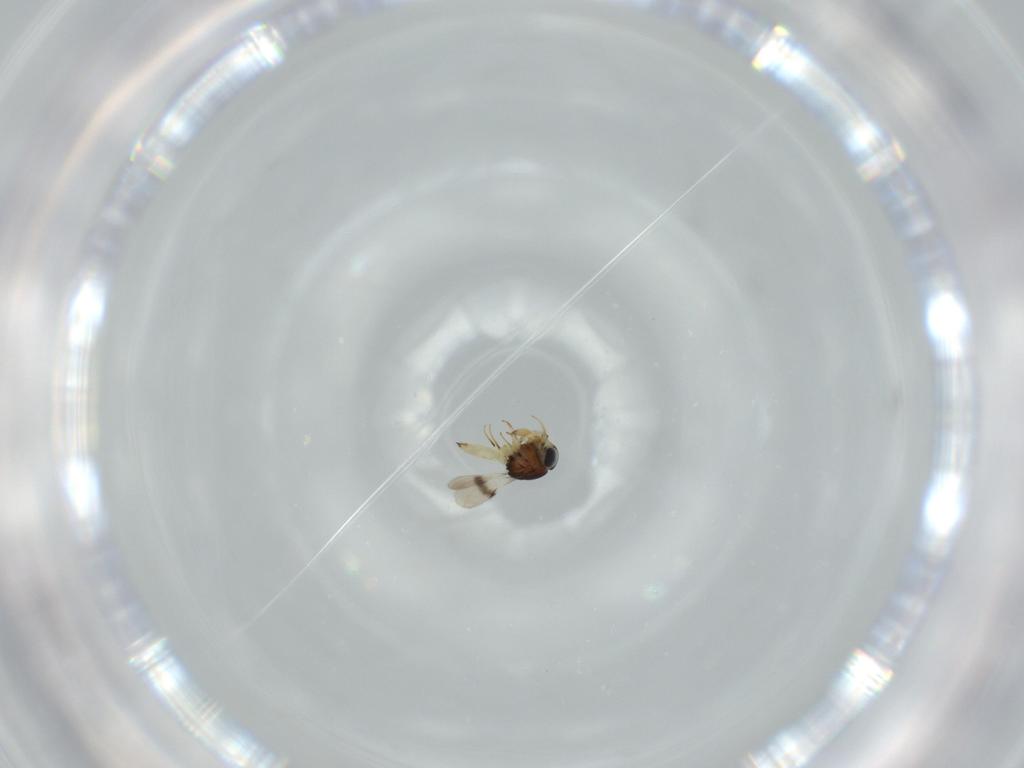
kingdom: Animalia
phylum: Arthropoda
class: Insecta
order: Hymenoptera
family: Scelionidae
